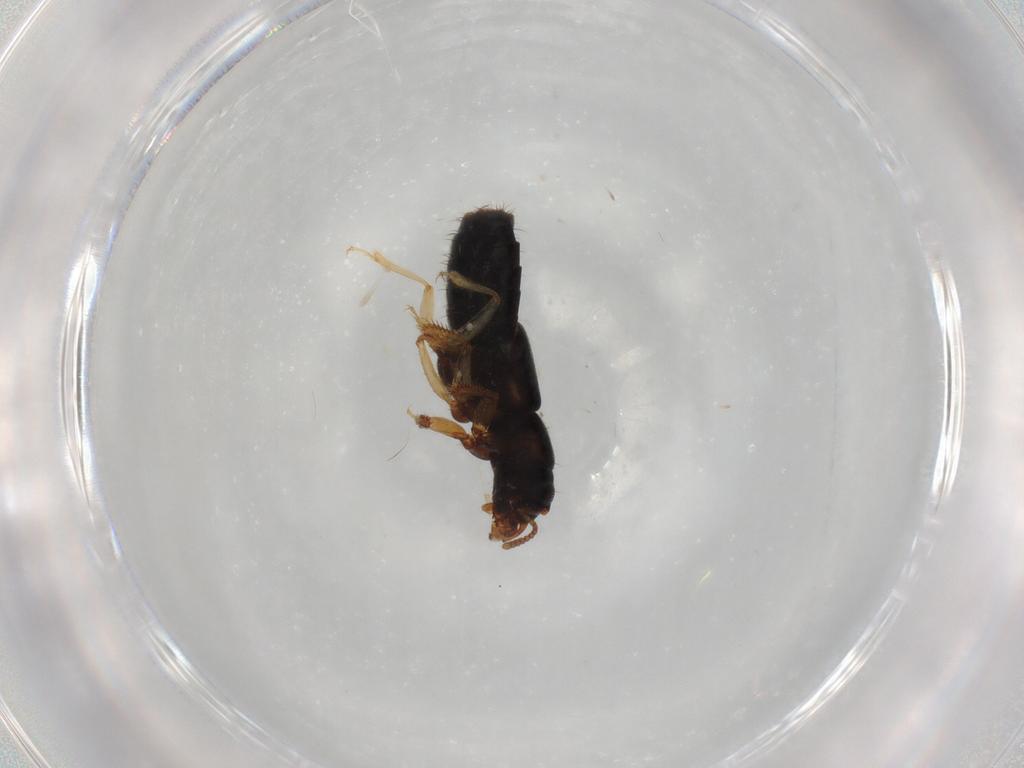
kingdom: Animalia
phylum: Arthropoda
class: Insecta
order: Coleoptera
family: Staphylinidae
